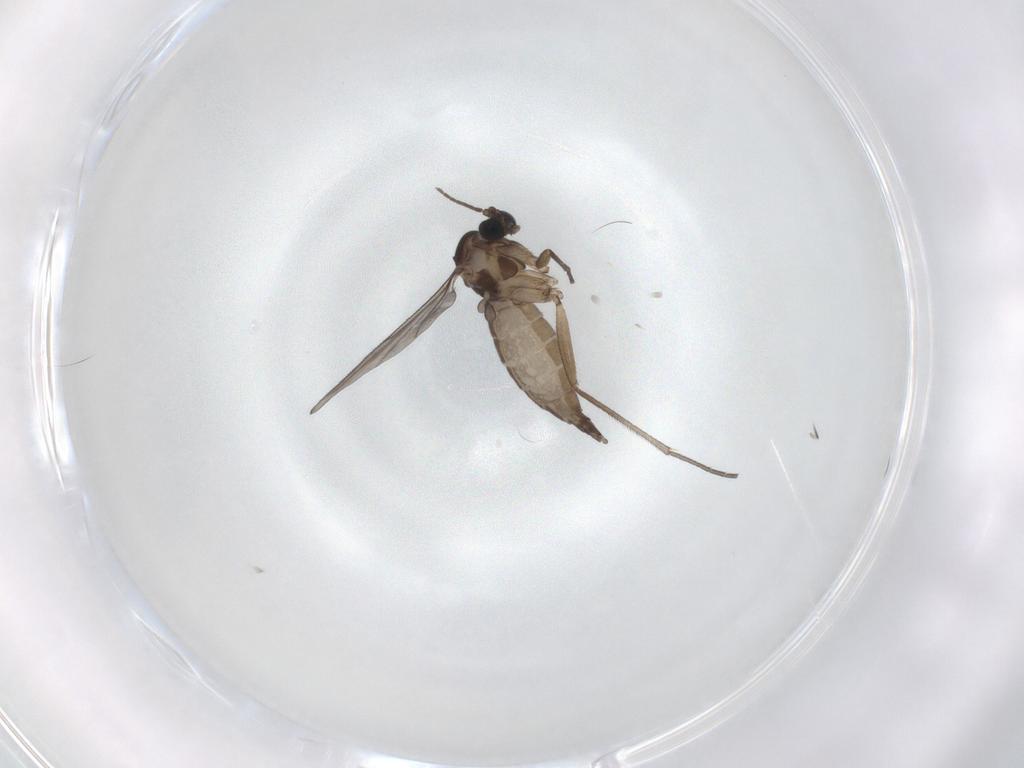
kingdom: Animalia
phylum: Arthropoda
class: Insecta
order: Diptera
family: Sciaridae
